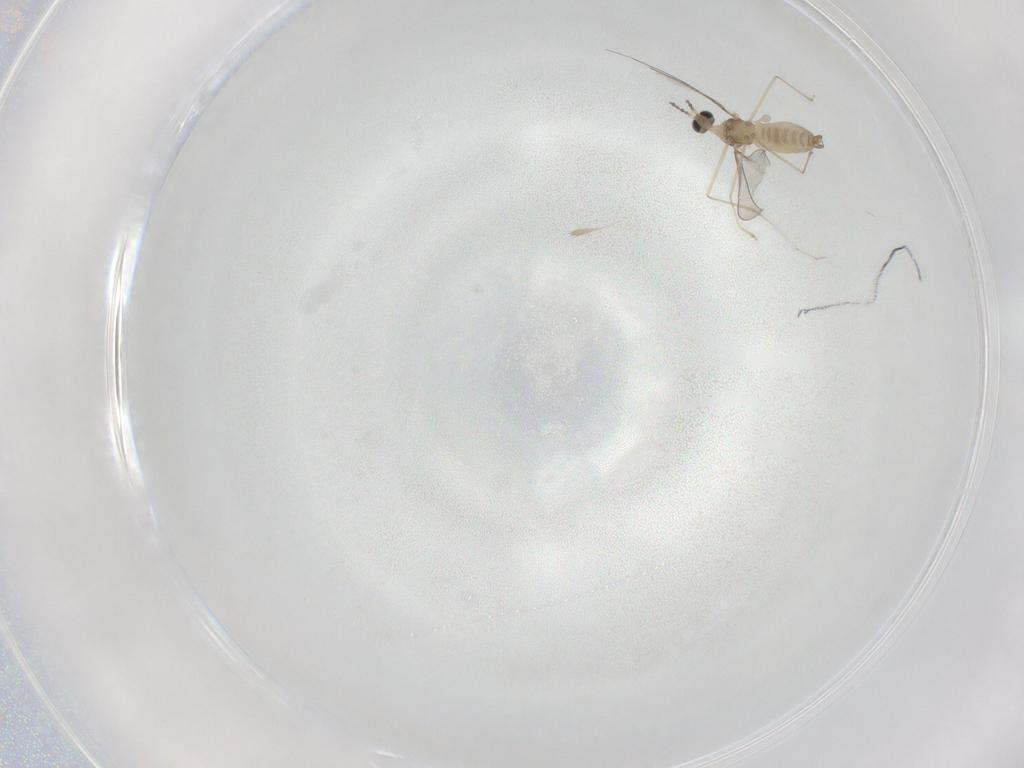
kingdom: Animalia
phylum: Arthropoda
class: Insecta
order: Diptera
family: Cecidomyiidae
